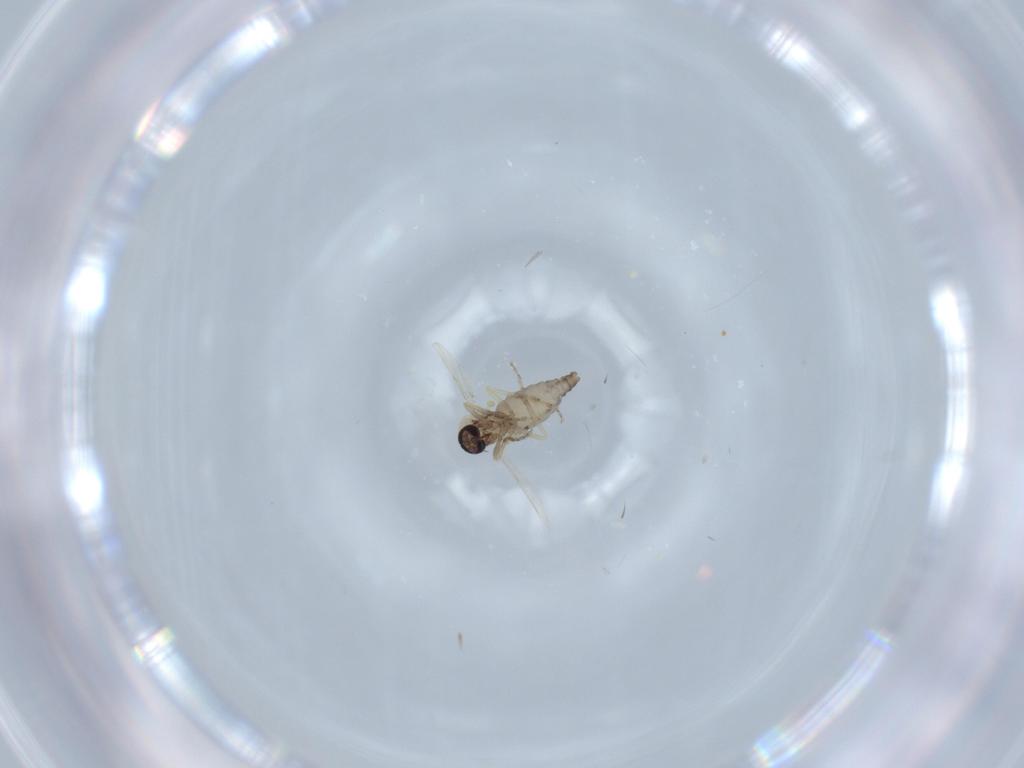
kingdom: Animalia
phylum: Arthropoda
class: Insecta
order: Diptera
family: Ceratopogonidae
